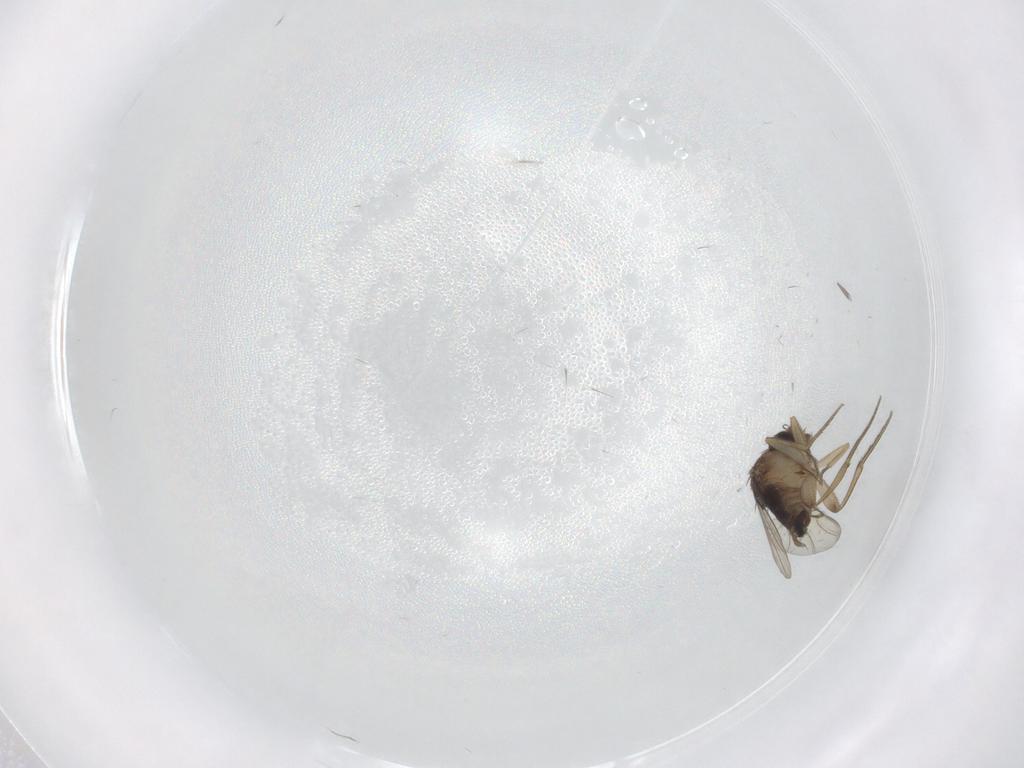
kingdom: Animalia
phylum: Arthropoda
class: Insecta
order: Diptera
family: Cecidomyiidae
